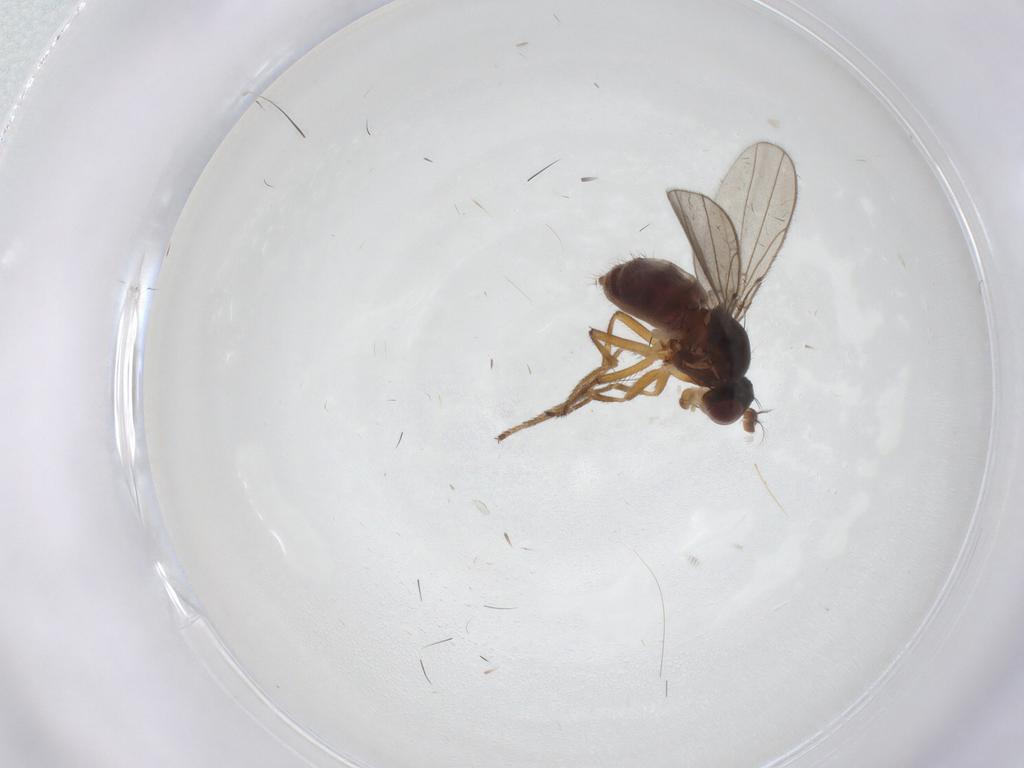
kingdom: Animalia
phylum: Arthropoda
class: Insecta
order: Diptera
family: Ephydridae
